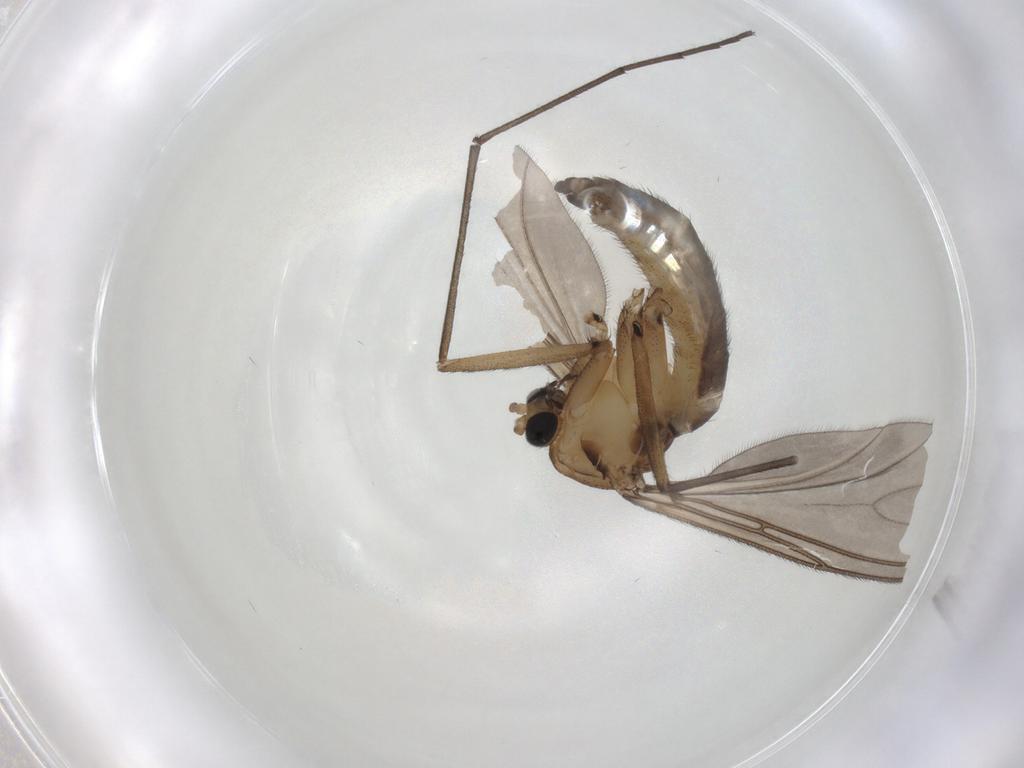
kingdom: Animalia
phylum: Arthropoda
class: Insecta
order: Diptera
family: Sciaridae
